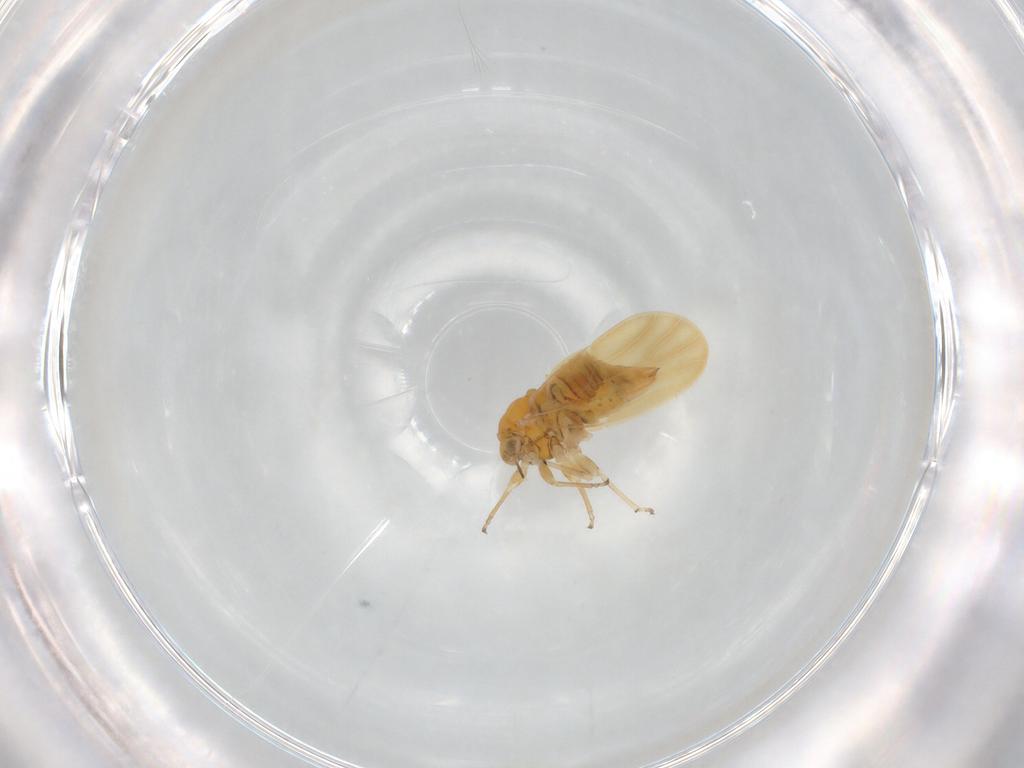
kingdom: Animalia
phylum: Arthropoda
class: Insecta
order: Hemiptera
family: Liviidae
